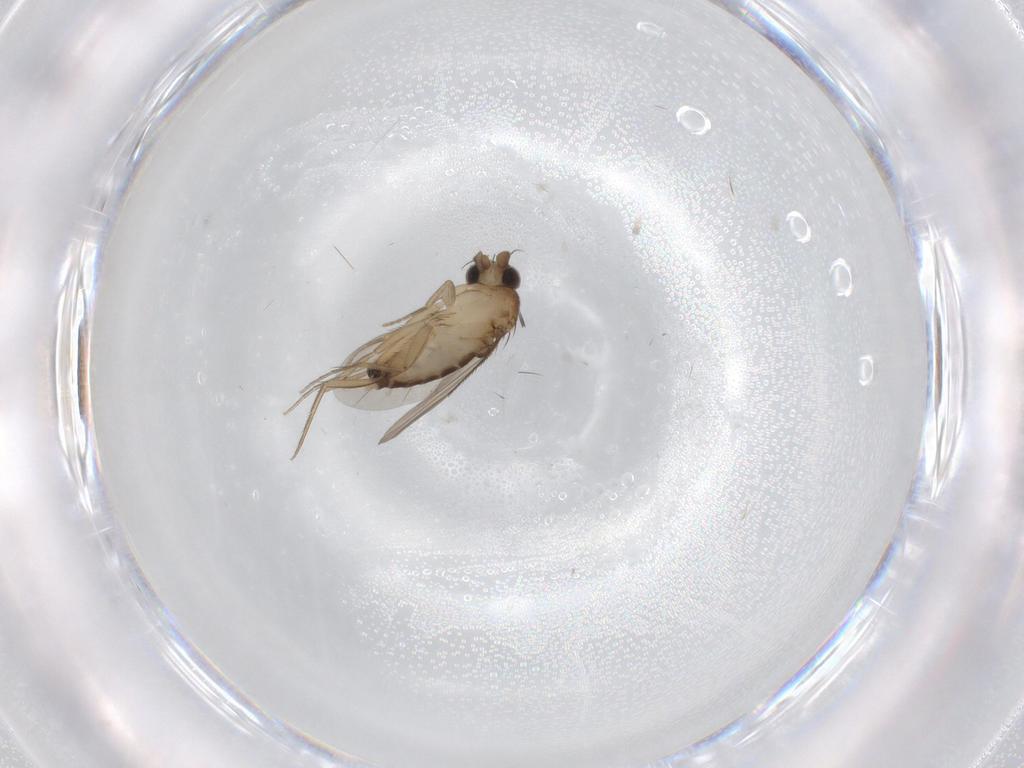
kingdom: Animalia
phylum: Arthropoda
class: Insecta
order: Diptera
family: Phoridae
